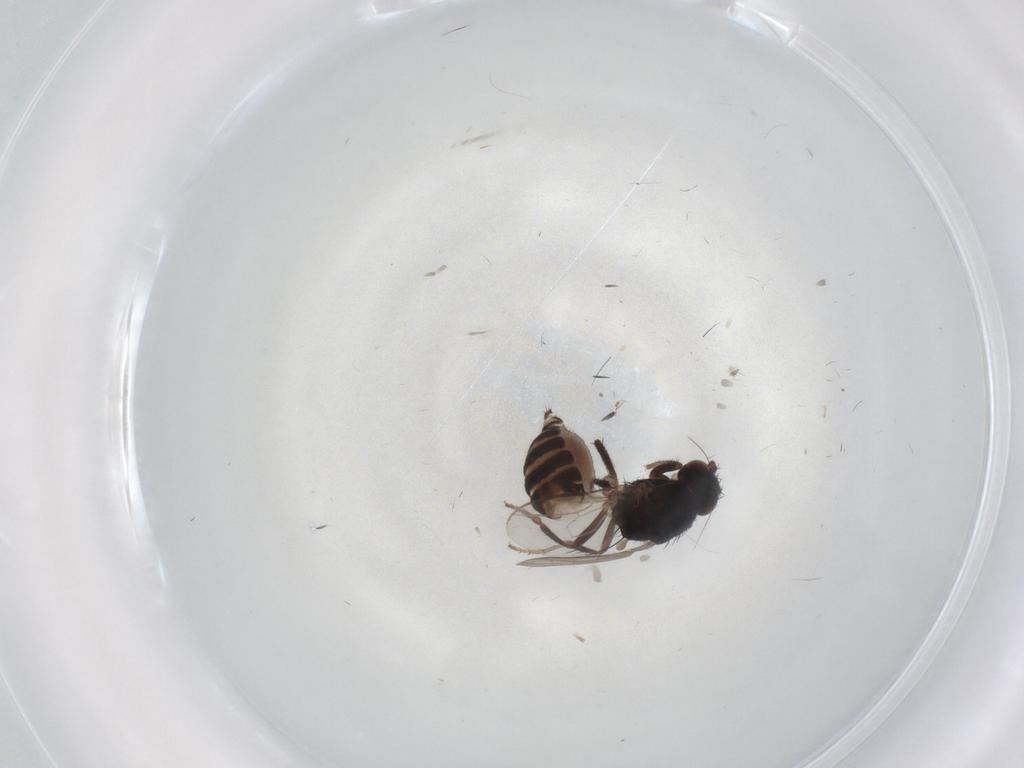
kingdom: Animalia
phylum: Arthropoda
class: Insecta
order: Diptera
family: Sphaeroceridae
